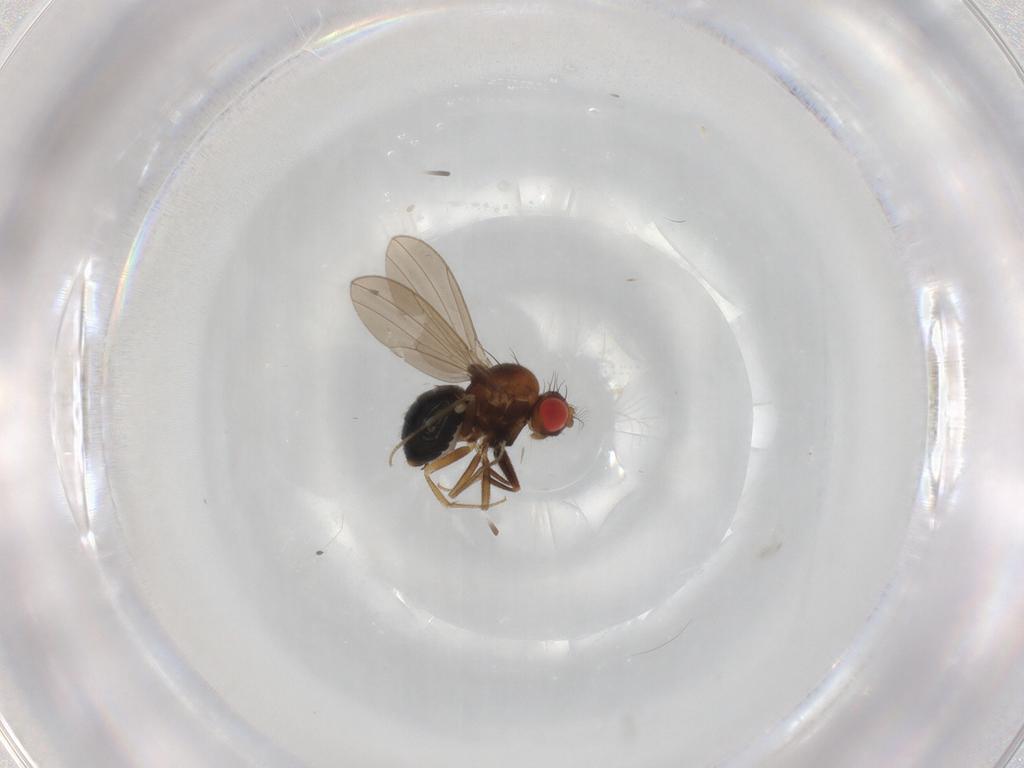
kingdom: Animalia
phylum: Arthropoda
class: Insecta
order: Diptera
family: Drosophilidae
